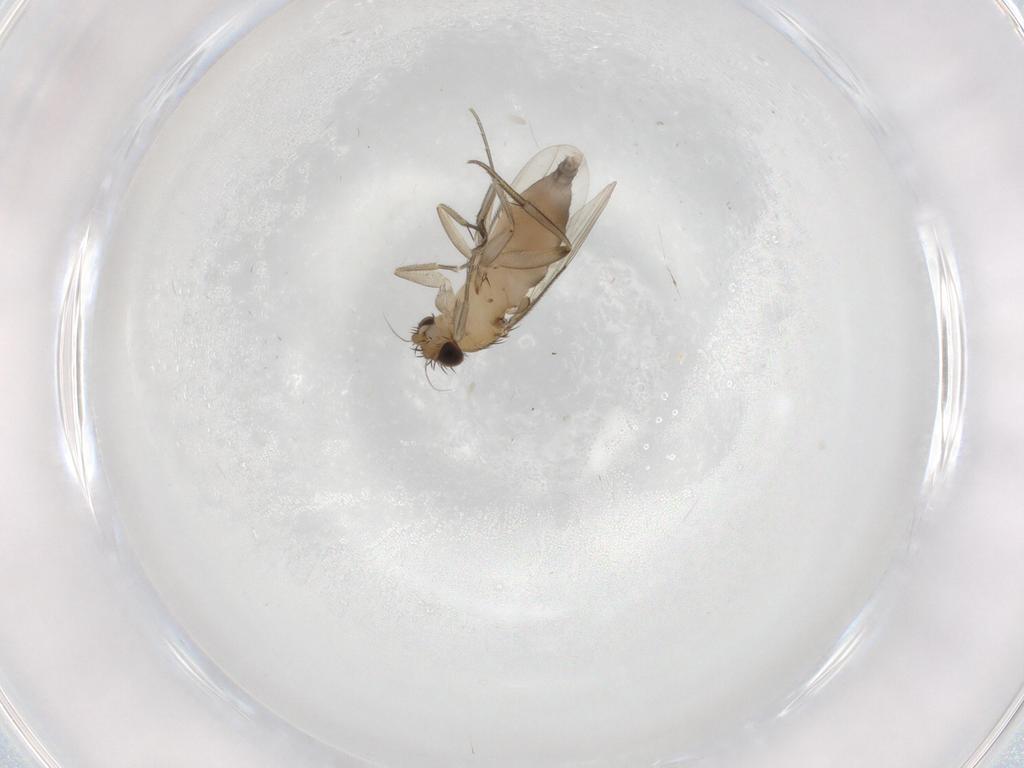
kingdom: Animalia
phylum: Arthropoda
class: Insecta
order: Diptera
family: Phoridae
